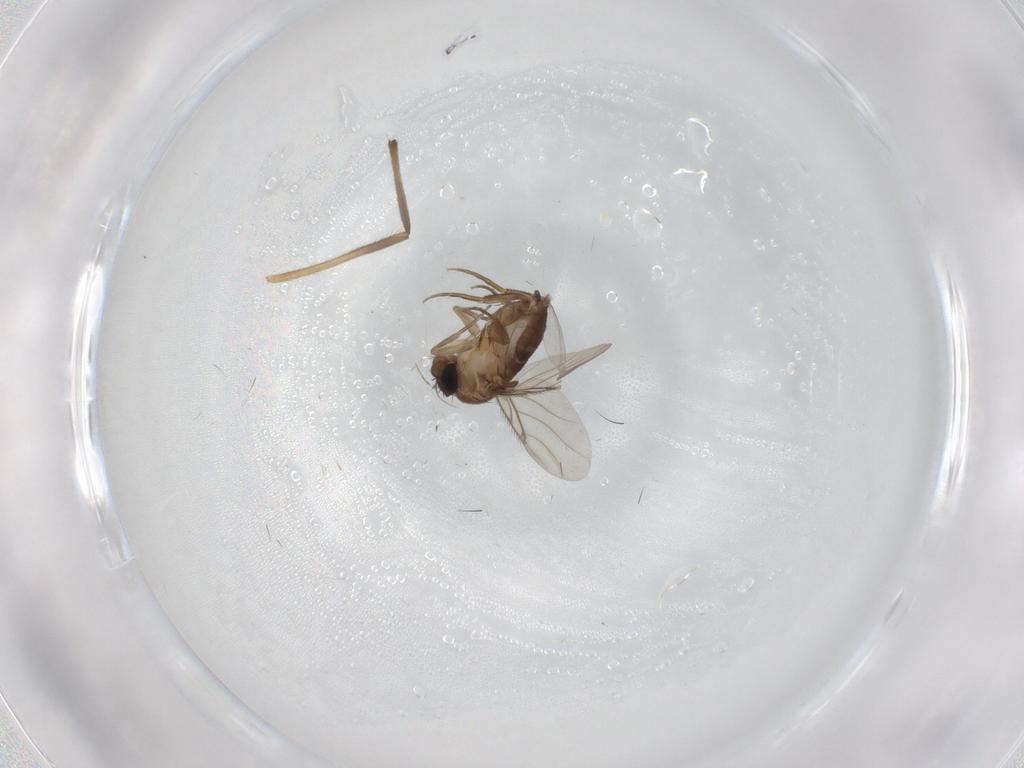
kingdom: Animalia
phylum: Arthropoda
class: Insecta
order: Diptera
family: Phoridae
